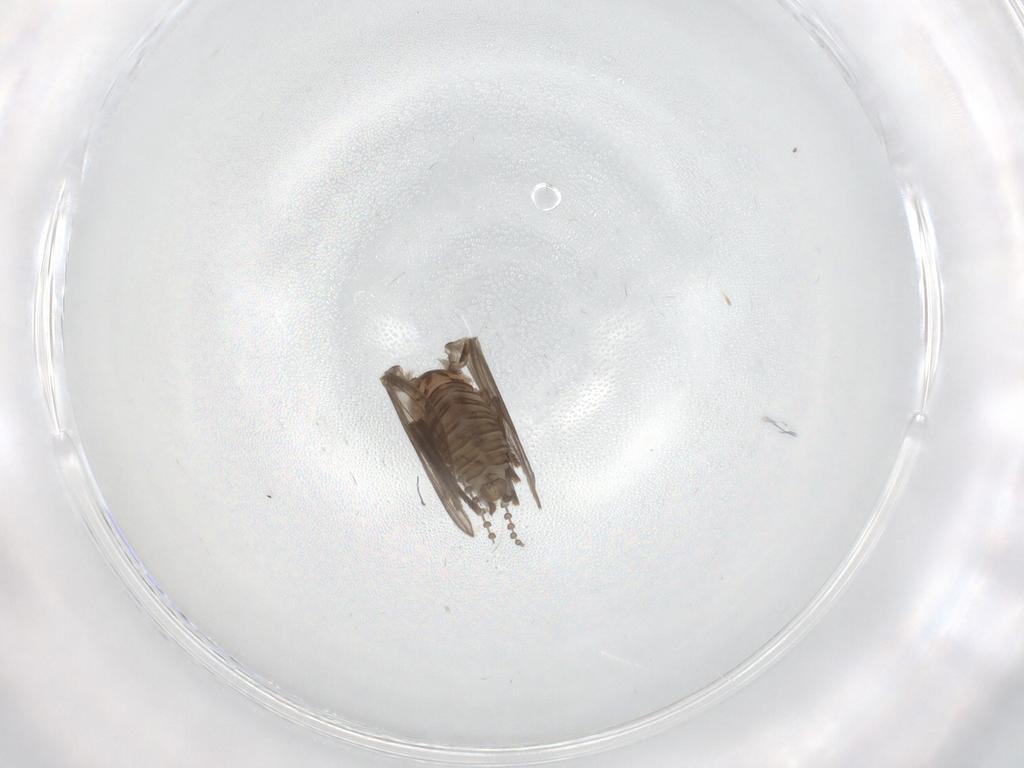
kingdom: Animalia
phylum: Arthropoda
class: Insecta
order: Diptera
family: Psychodidae
